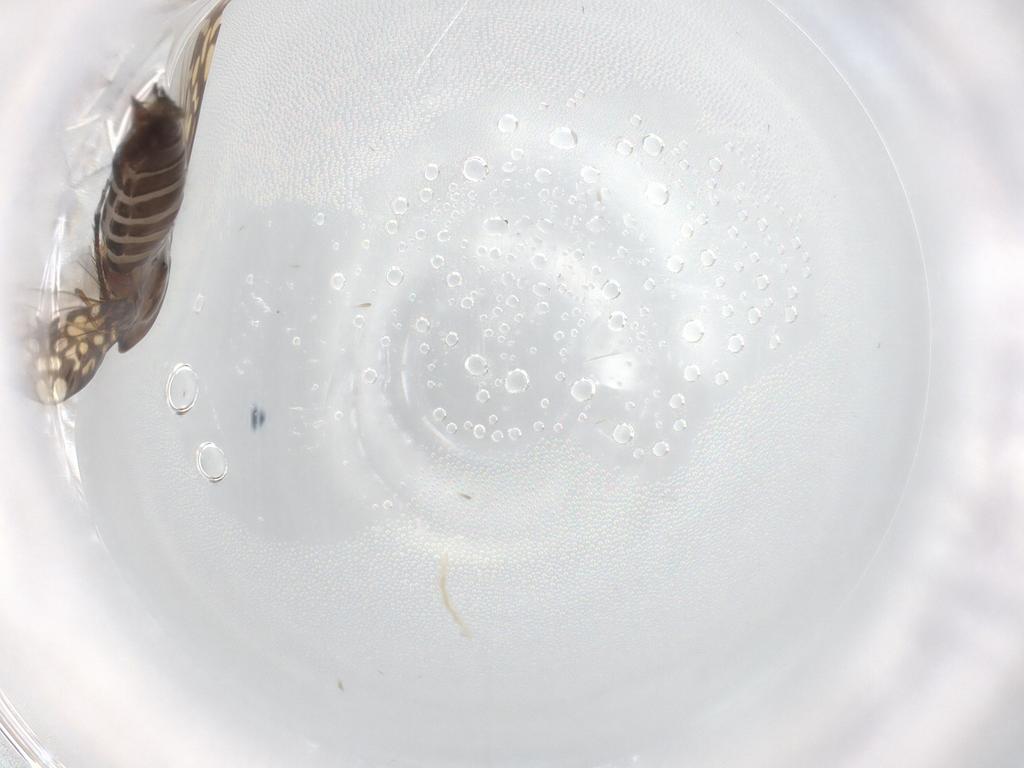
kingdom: Animalia
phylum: Arthropoda
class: Insecta
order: Hemiptera
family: Cicadellidae
